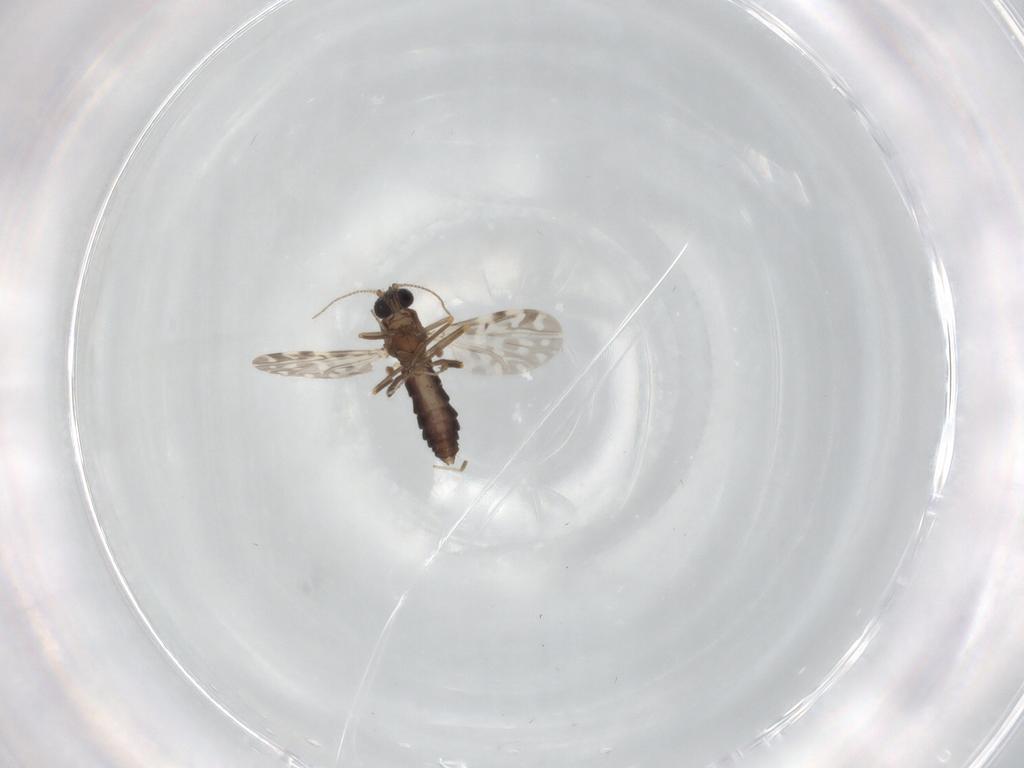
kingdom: Animalia
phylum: Arthropoda
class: Insecta
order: Diptera
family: Ceratopogonidae
